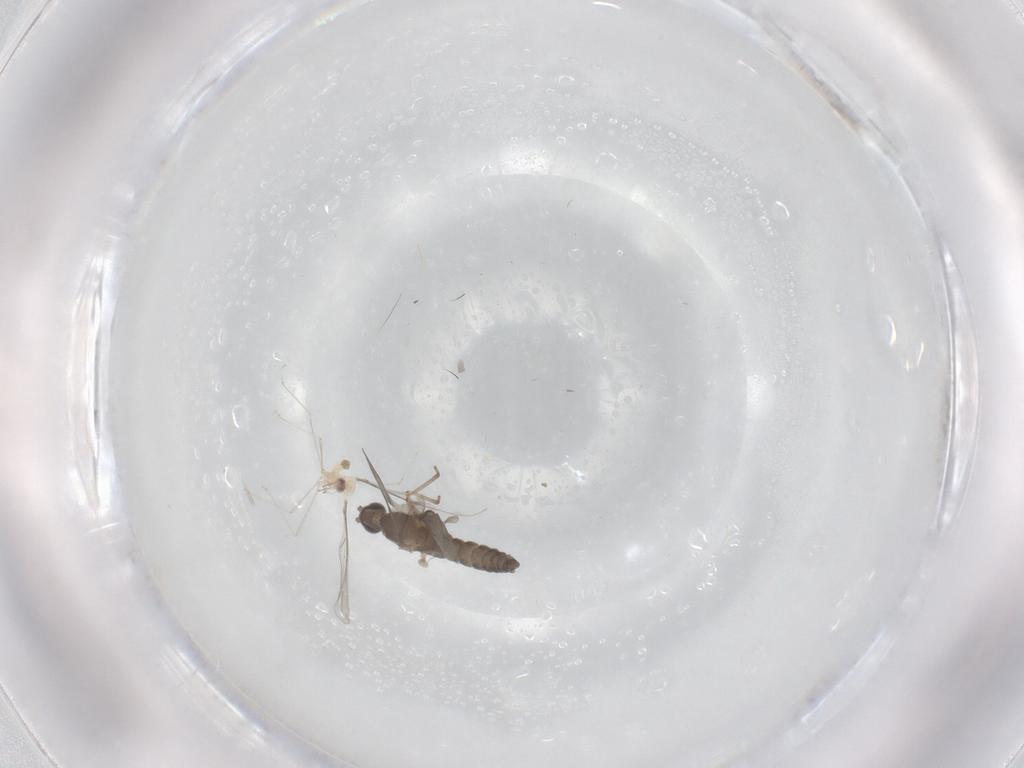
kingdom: Animalia
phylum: Arthropoda
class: Insecta
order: Diptera
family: Cecidomyiidae
